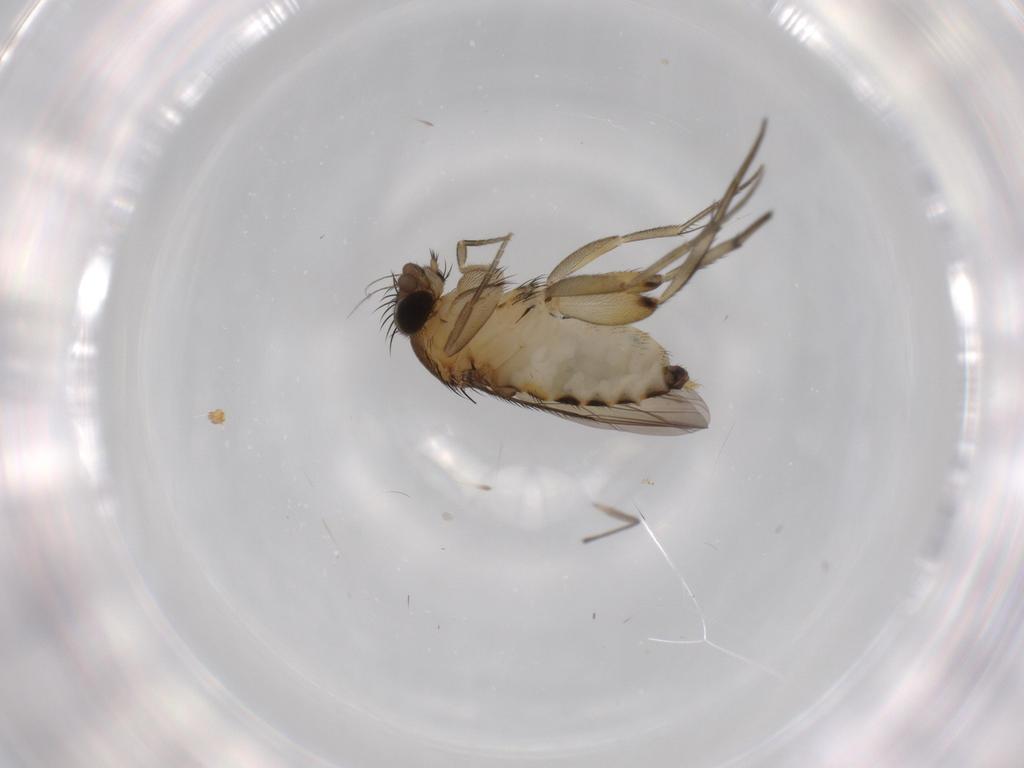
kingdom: Animalia
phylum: Arthropoda
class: Insecta
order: Diptera
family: Phoridae
